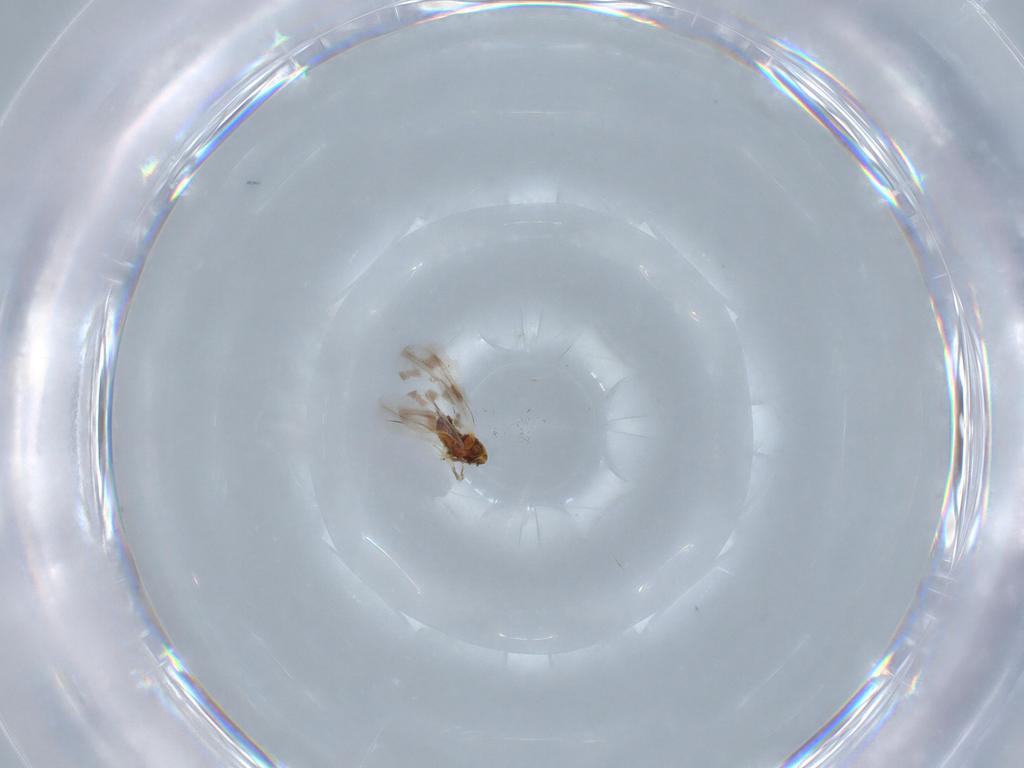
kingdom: Animalia
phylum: Arthropoda
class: Insecta
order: Hemiptera
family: Aleyrodidae
